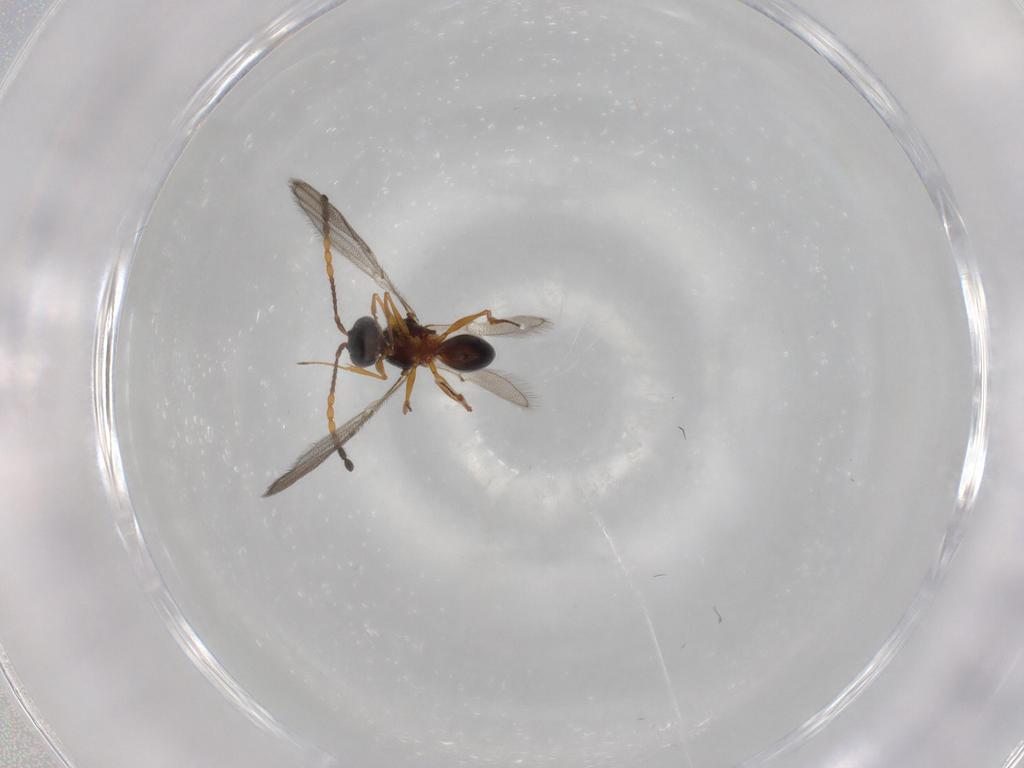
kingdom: Animalia
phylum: Arthropoda
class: Insecta
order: Hymenoptera
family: Figitidae
